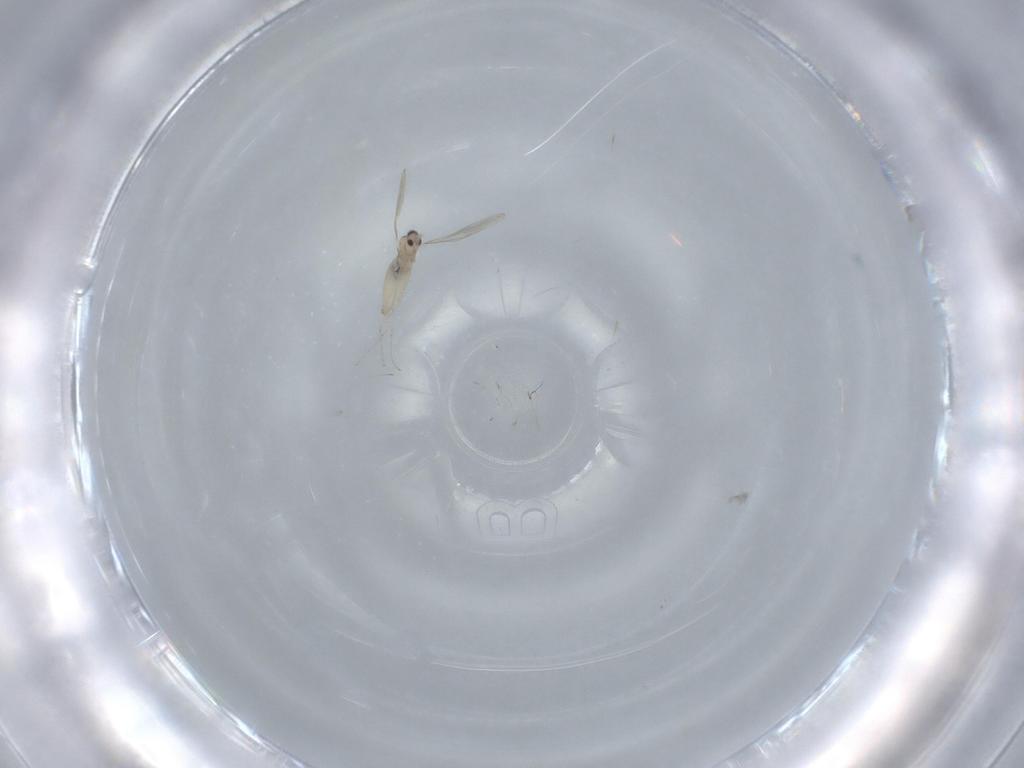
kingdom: Animalia
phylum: Arthropoda
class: Insecta
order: Diptera
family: Cecidomyiidae
